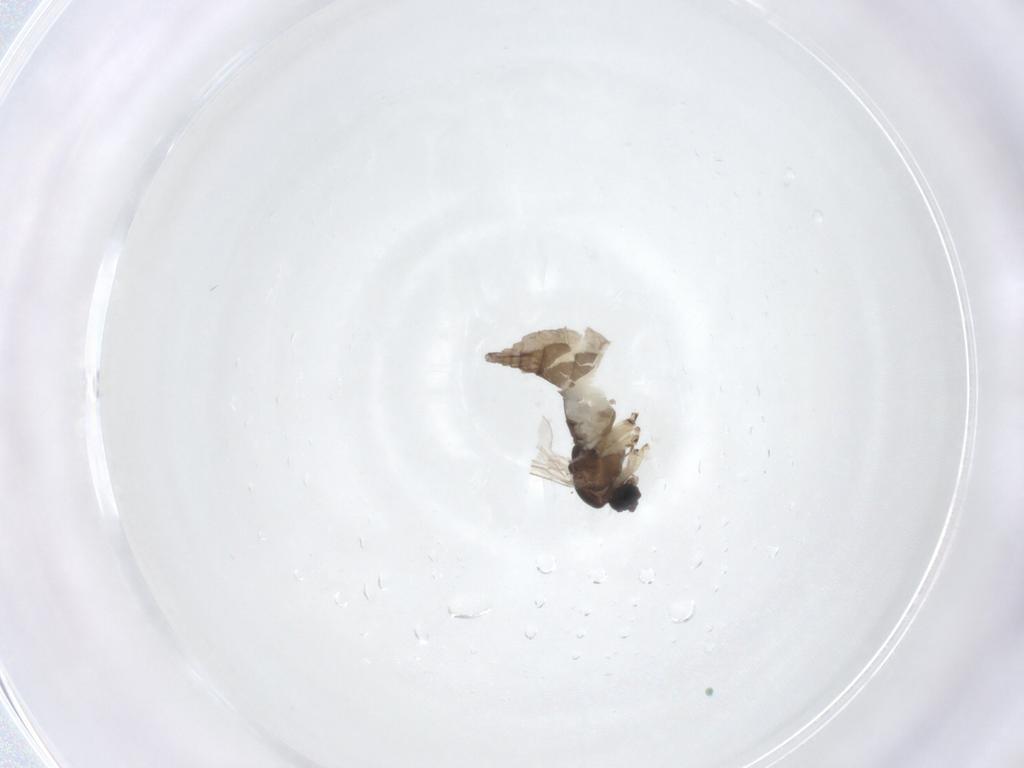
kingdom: Animalia
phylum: Arthropoda
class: Insecta
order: Diptera
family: Sciaridae
